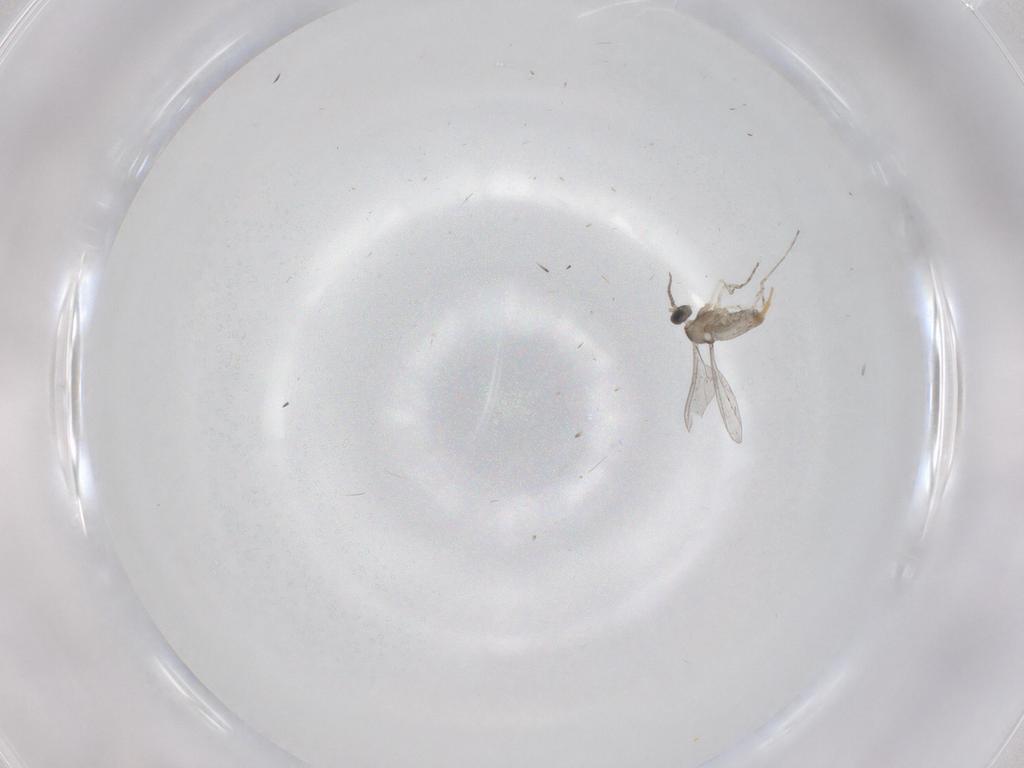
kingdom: Animalia
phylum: Arthropoda
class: Insecta
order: Diptera
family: Cecidomyiidae
